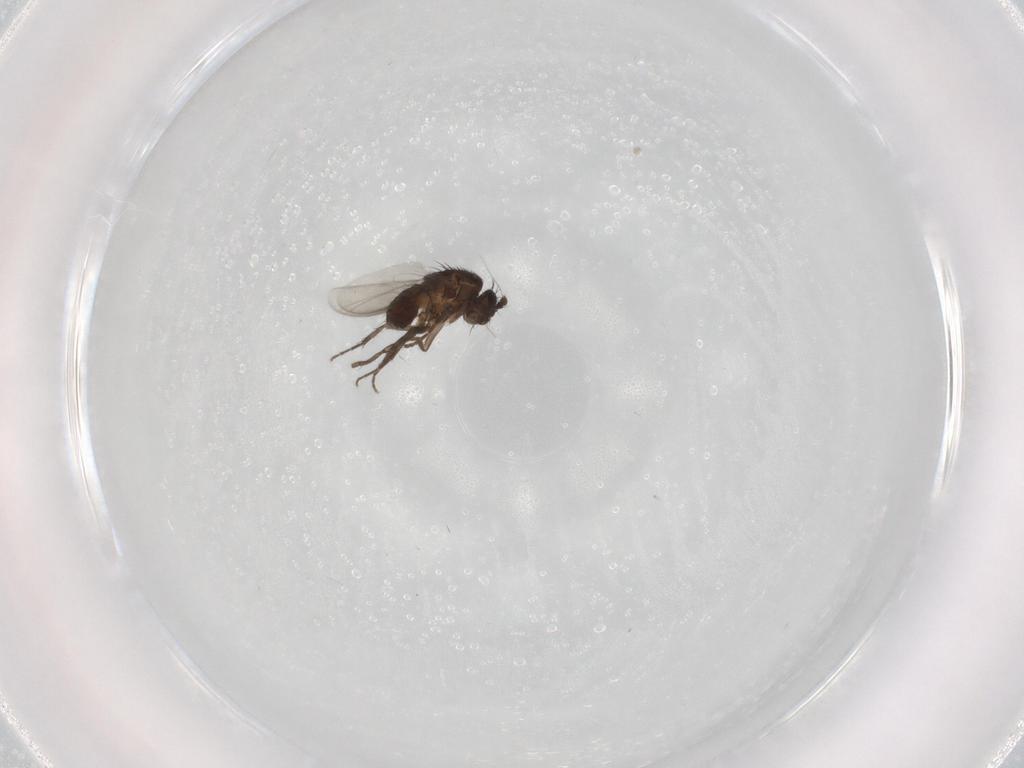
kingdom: Animalia
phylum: Arthropoda
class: Insecta
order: Diptera
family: Sphaeroceridae
